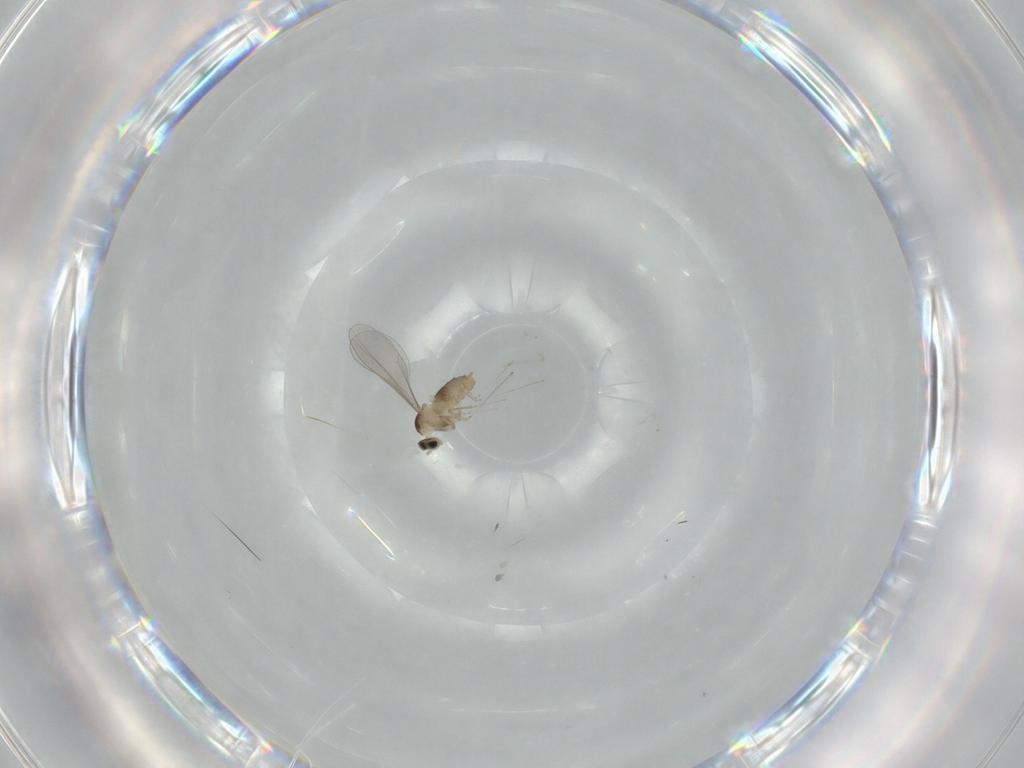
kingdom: Animalia
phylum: Arthropoda
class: Insecta
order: Diptera
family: Cecidomyiidae
